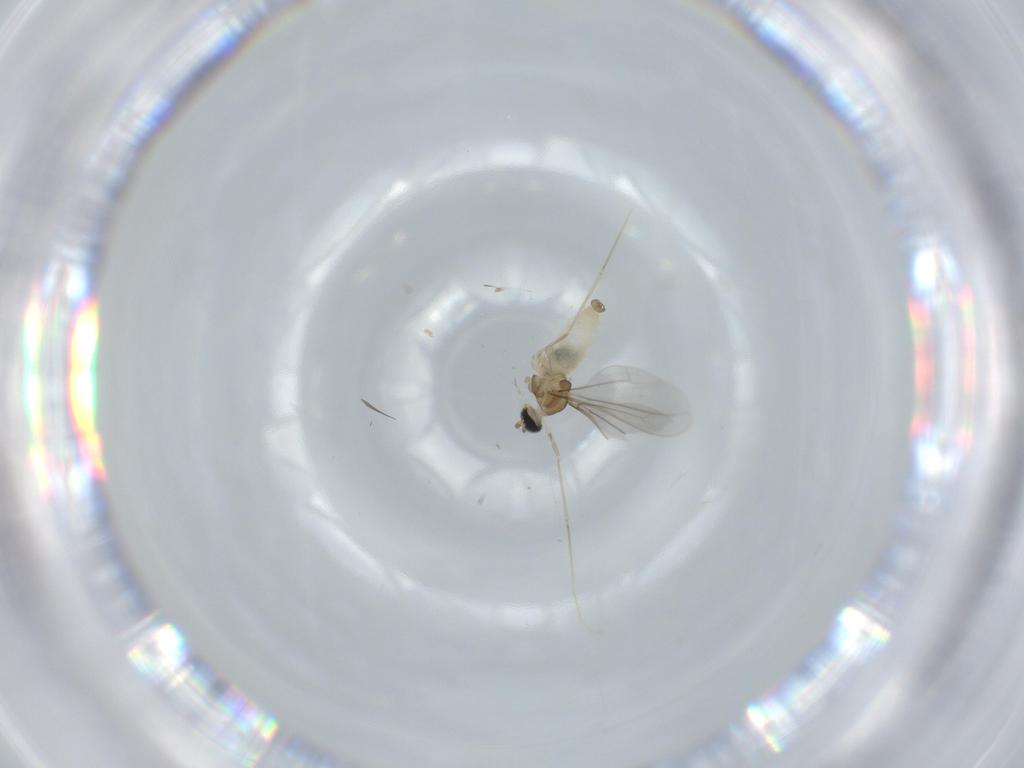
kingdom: Animalia
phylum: Arthropoda
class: Insecta
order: Diptera
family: Cecidomyiidae
